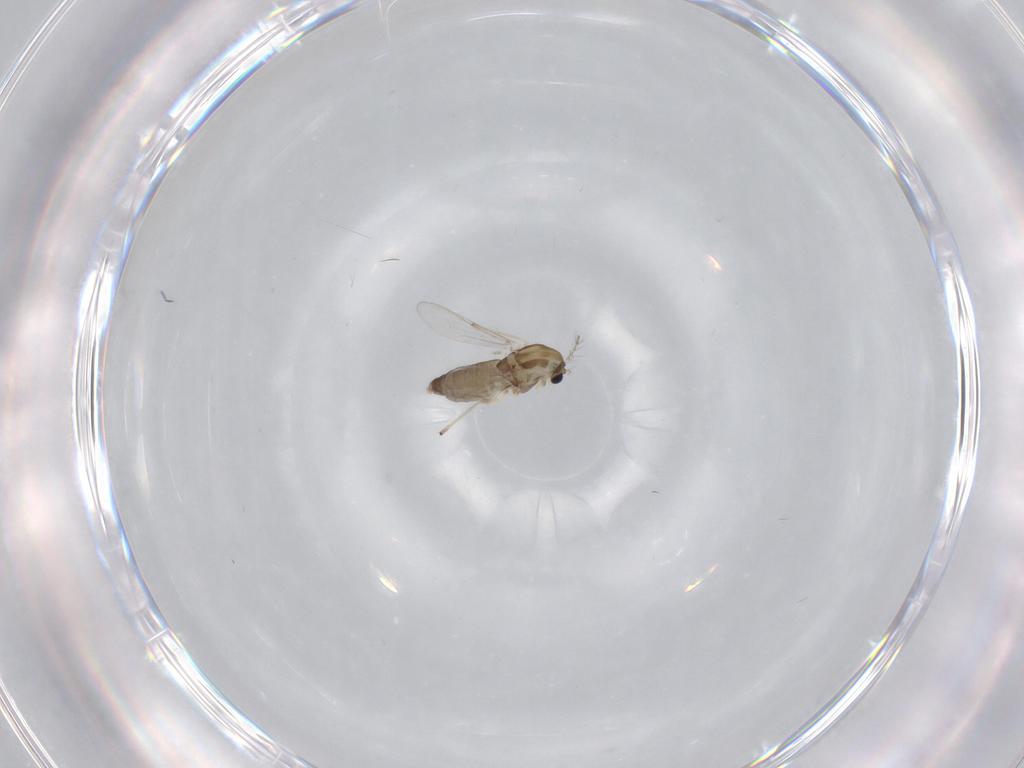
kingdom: Animalia
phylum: Arthropoda
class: Insecta
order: Diptera
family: Chironomidae
